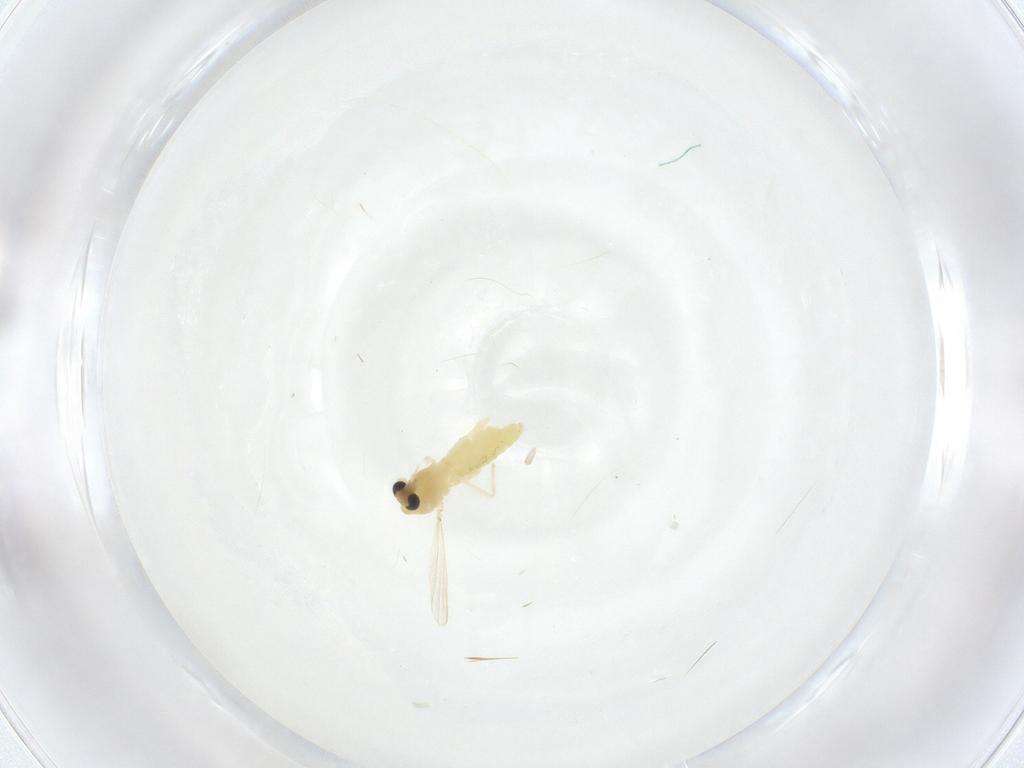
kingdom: Animalia
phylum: Arthropoda
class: Insecta
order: Diptera
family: Chironomidae
